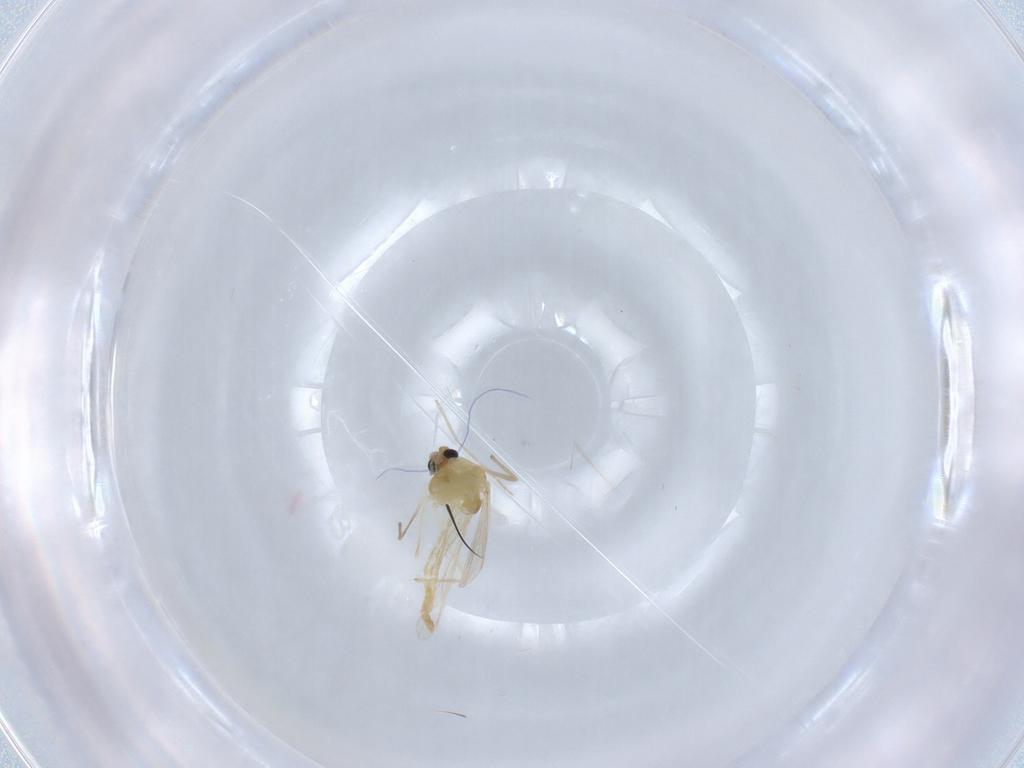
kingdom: Animalia
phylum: Arthropoda
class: Insecta
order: Diptera
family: Chironomidae
